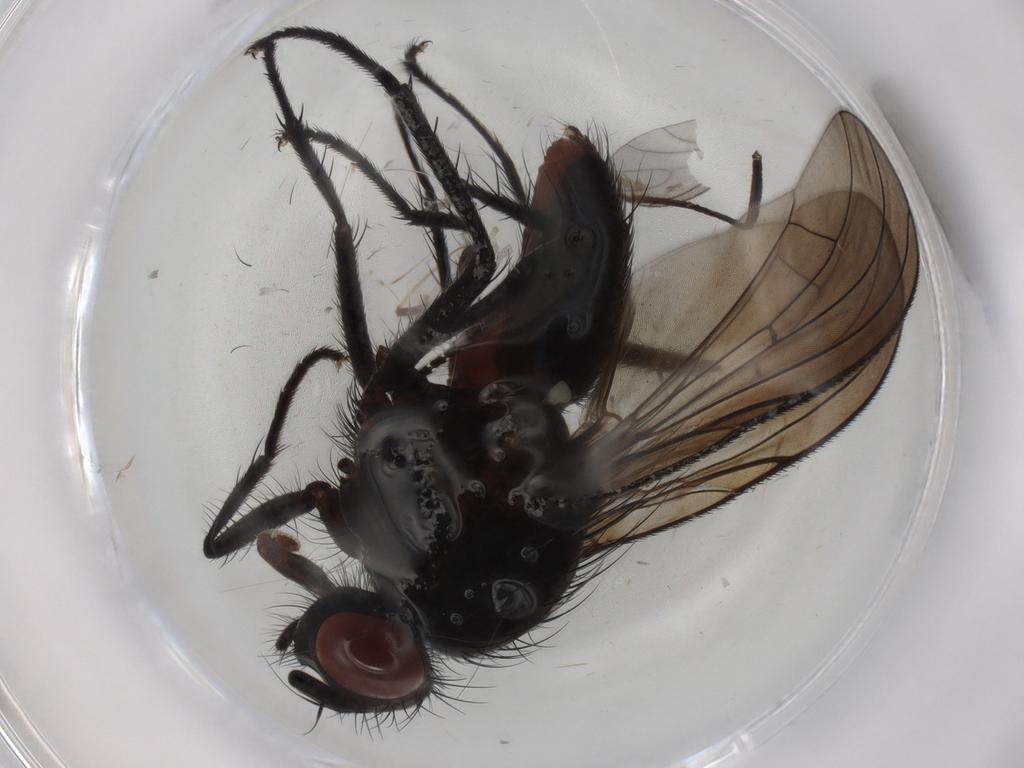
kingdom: Animalia
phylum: Arthropoda
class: Insecta
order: Diptera
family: Anthomyiidae
